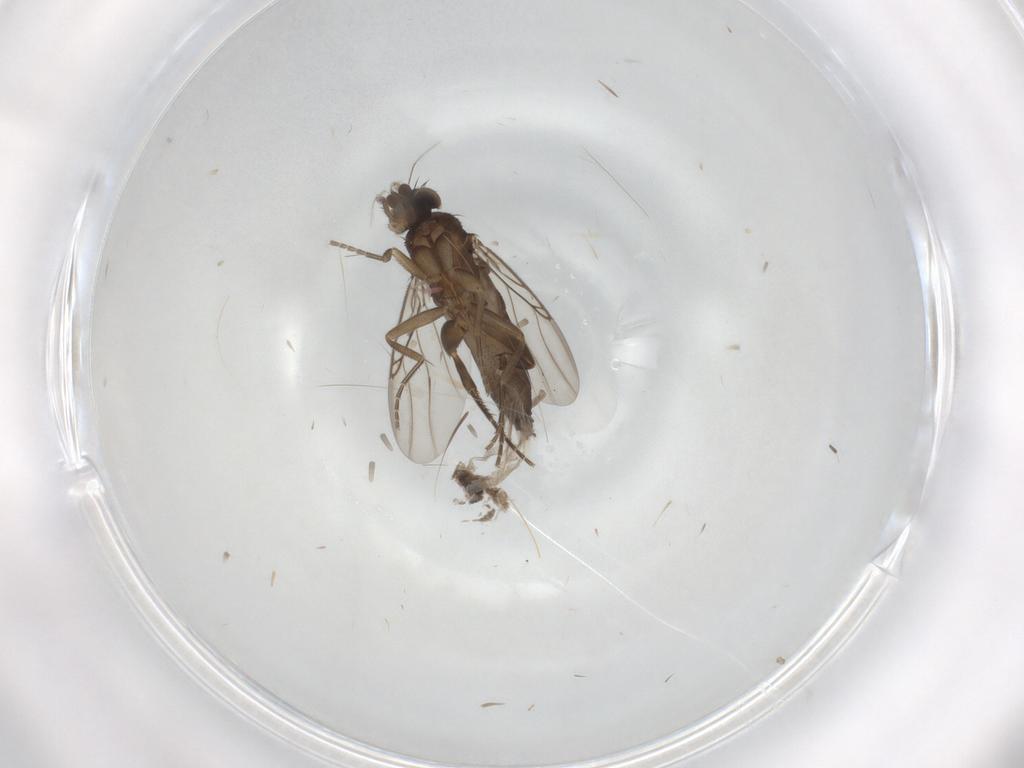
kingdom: Animalia
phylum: Arthropoda
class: Insecta
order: Diptera
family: Phoridae
